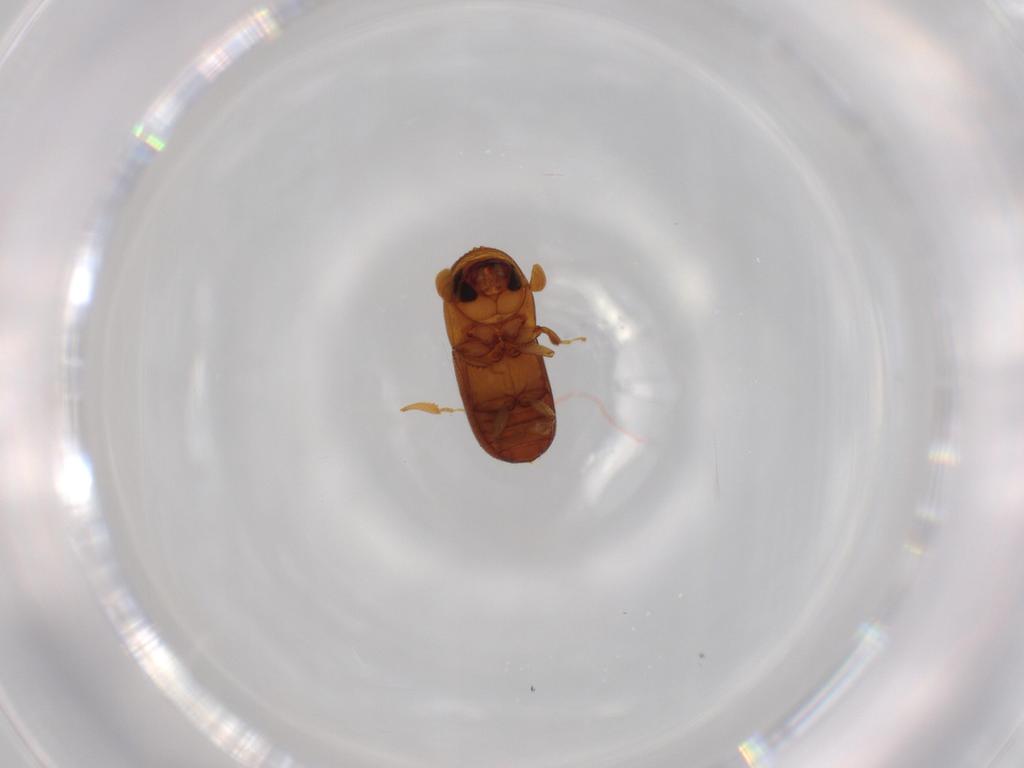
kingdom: Animalia
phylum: Arthropoda
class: Insecta
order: Coleoptera
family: Curculionidae
